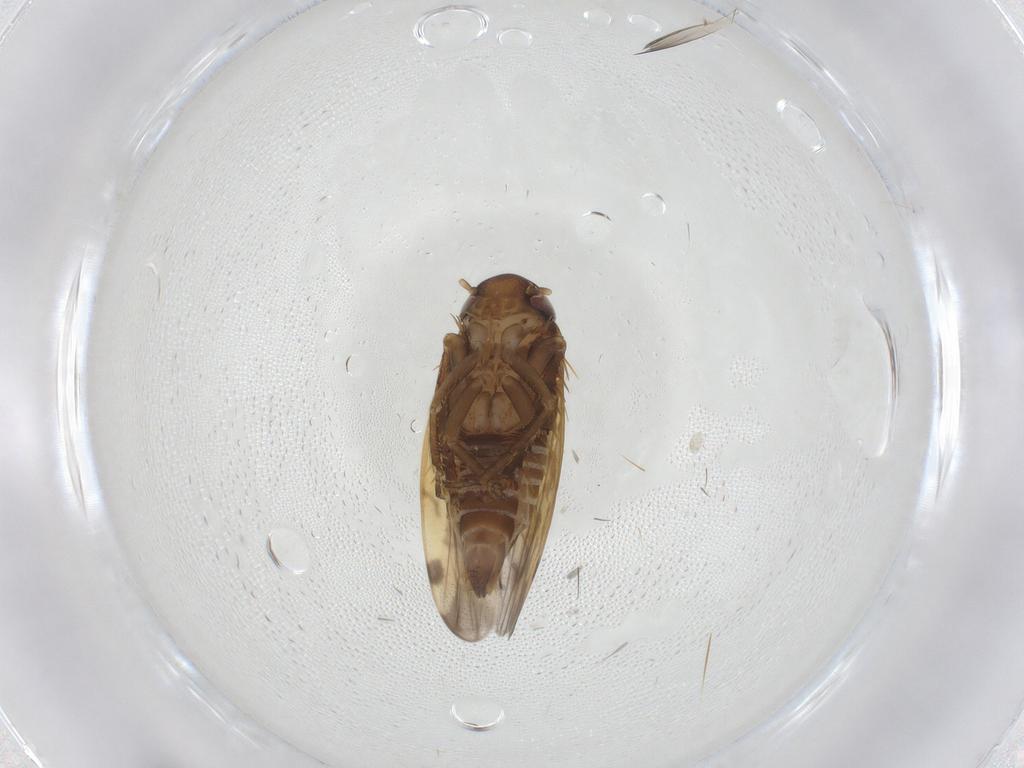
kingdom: Animalia
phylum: Arthropoda
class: Insecta
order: Hemiptera
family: Cicadellidae
